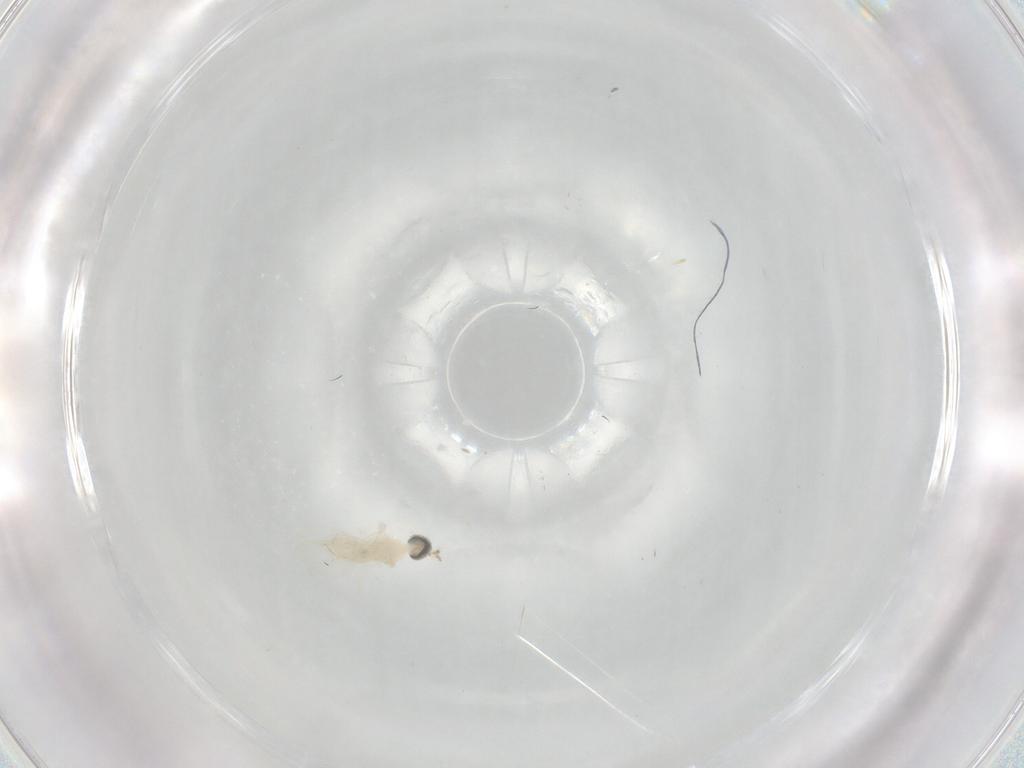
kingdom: Animalia
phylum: Arthropoda
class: Insecta
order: Diptera
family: Cecidomyiidae
